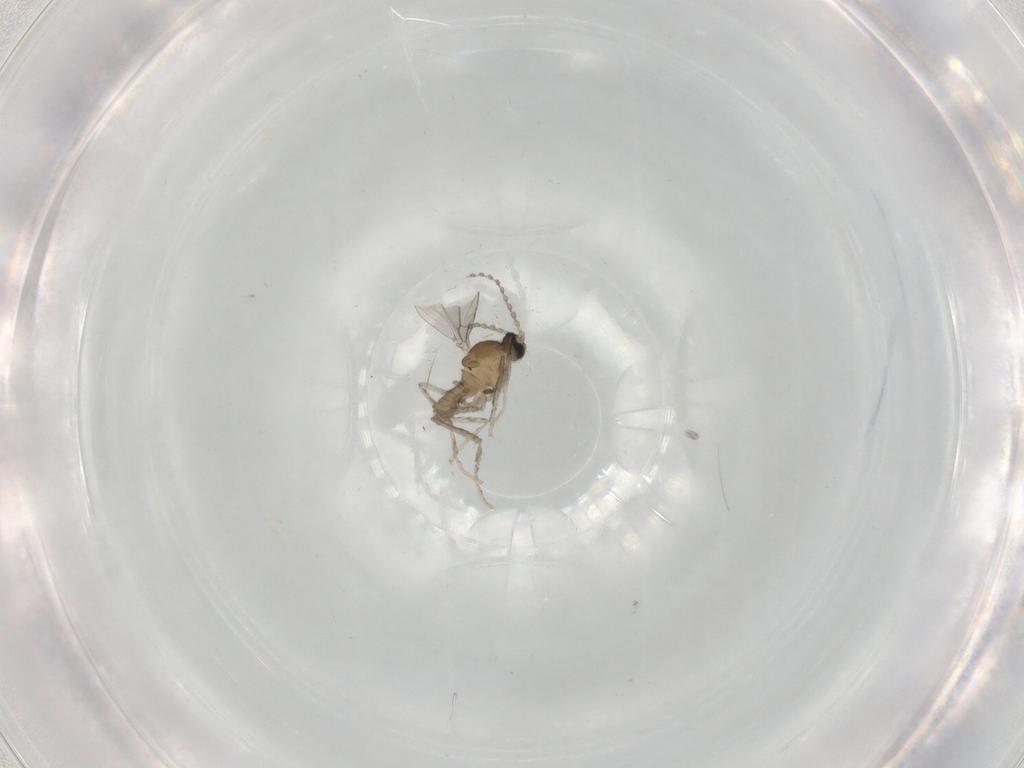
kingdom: Animalia
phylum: Arthropoda
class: Insecta
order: Diptera
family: Cecidomyiidae
